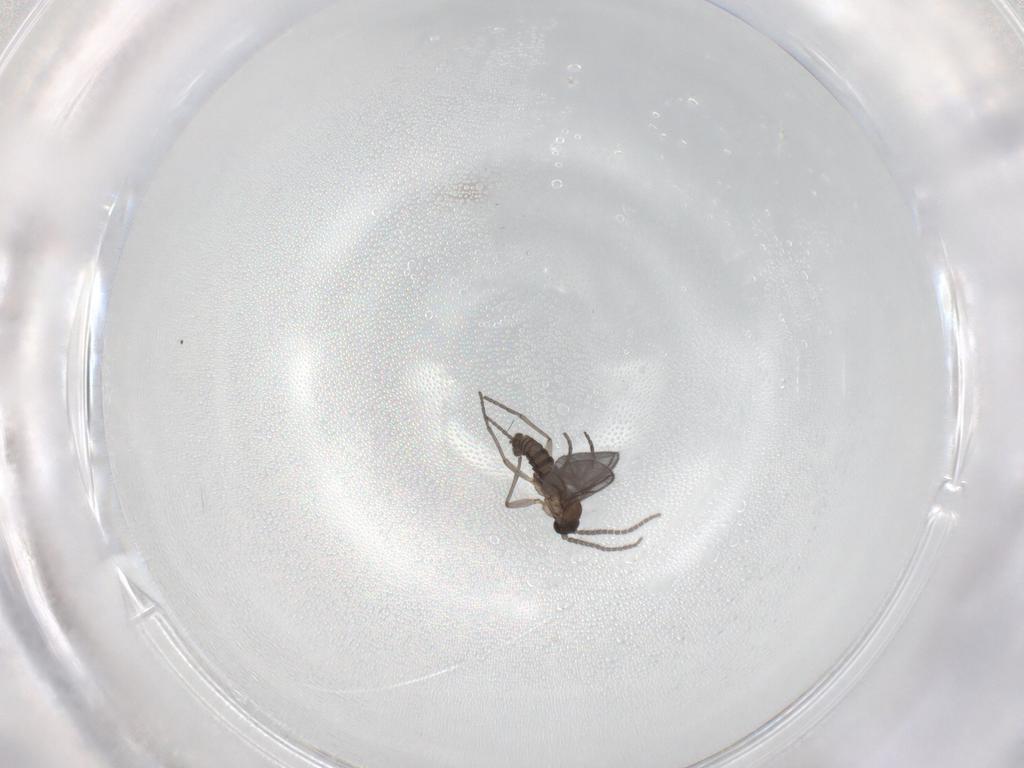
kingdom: Animalia
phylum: Arthropoda
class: Insecta
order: Diptera
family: Sciaridae
